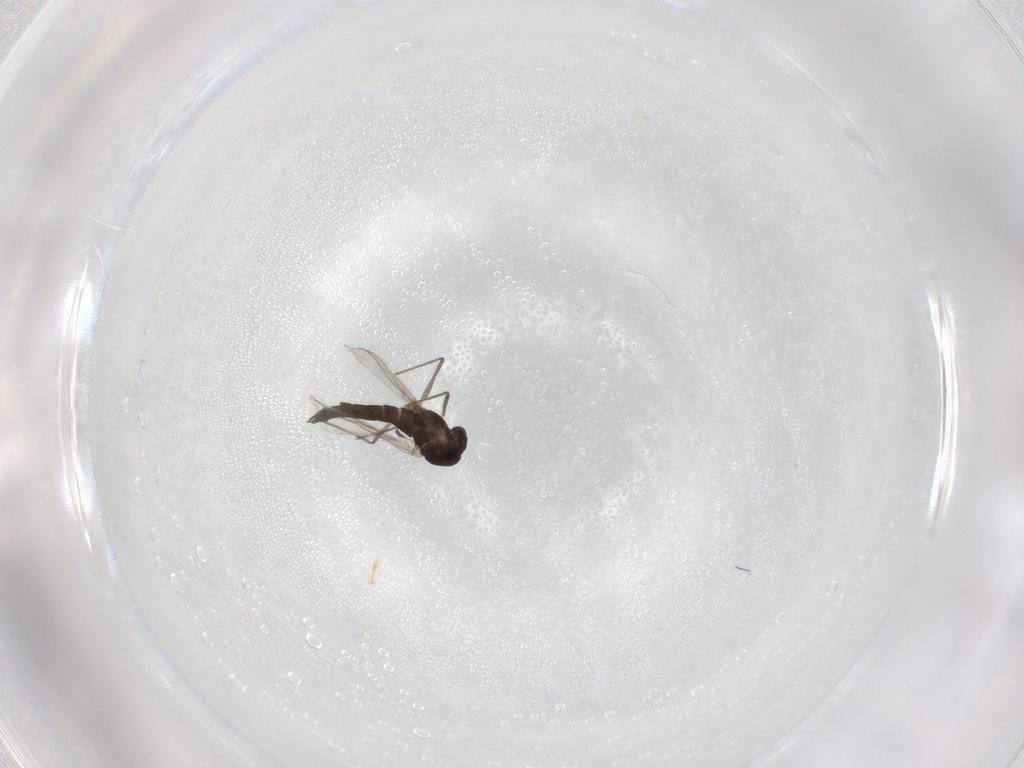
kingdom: Animalia
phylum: Arthropoda
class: Insecta
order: Diptera
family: Chironomidae
